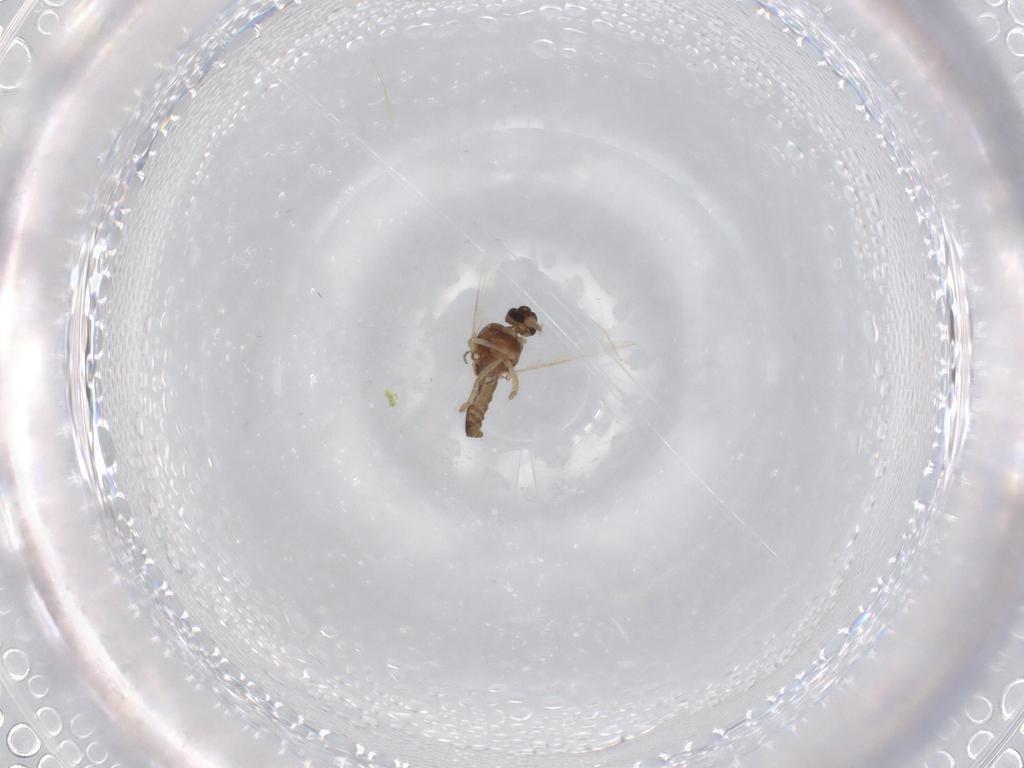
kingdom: Animalia
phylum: Arthropoda
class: Insecta
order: Diptera
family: Ceratopogonidae
